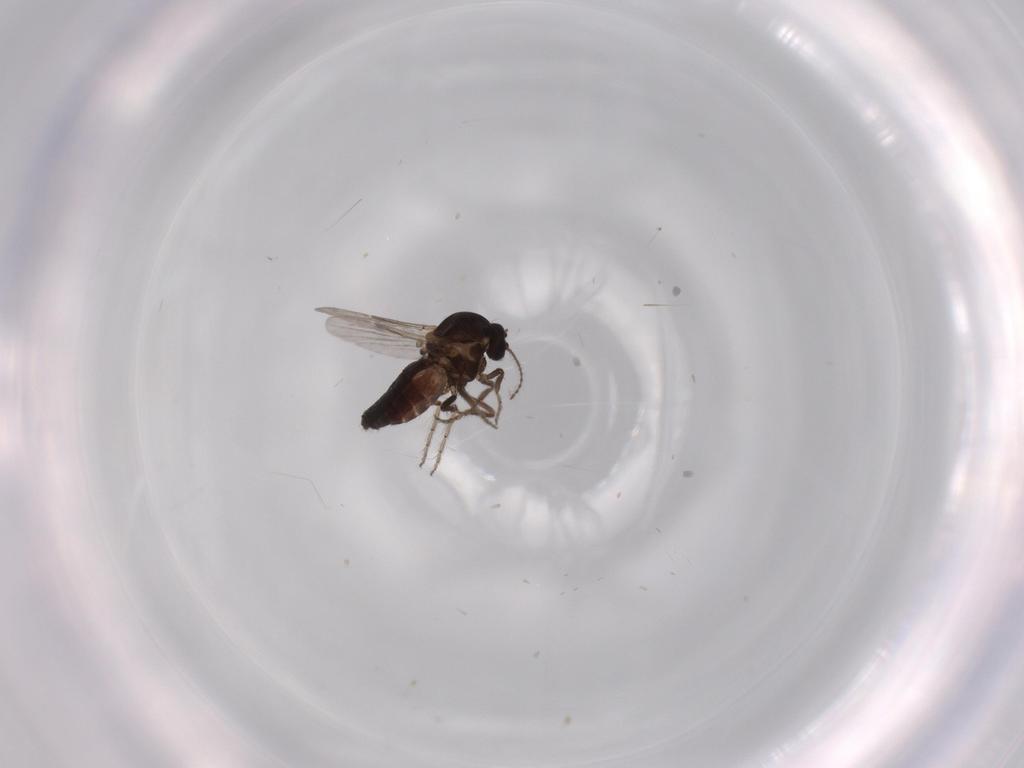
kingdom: Animalia
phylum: Arthropoda
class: Insecta
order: Diptera
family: Ceratopogonidae
